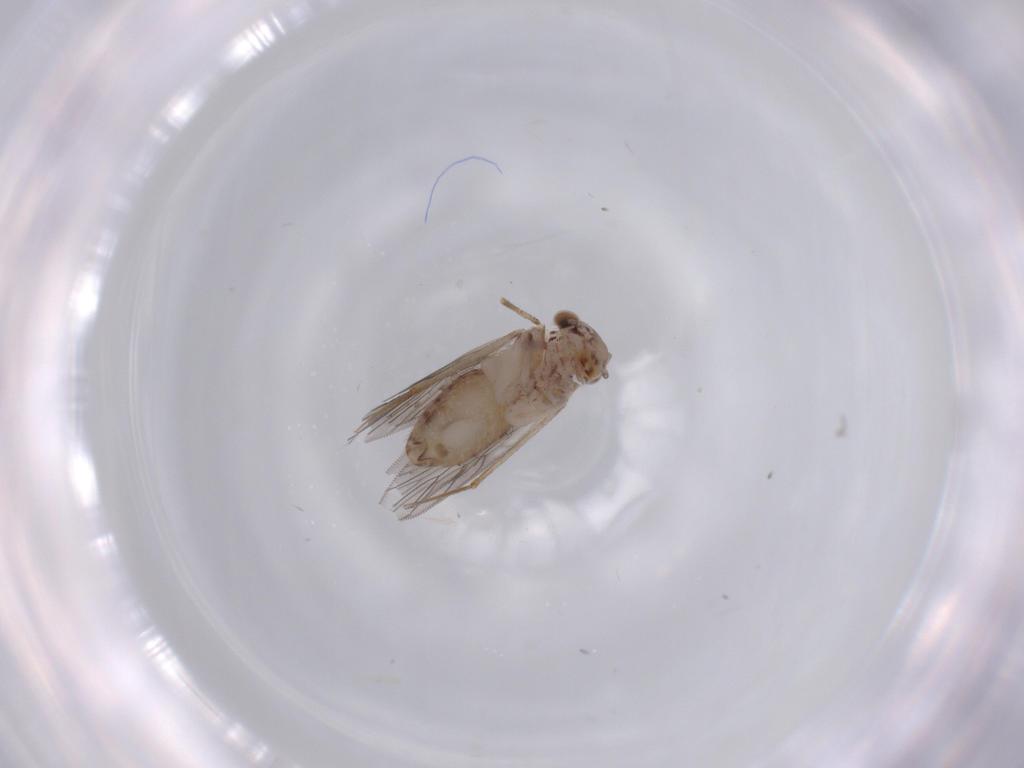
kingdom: Animalia
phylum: Arthropoda
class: Insecta
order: Psocodea
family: Lepidopsocidae
